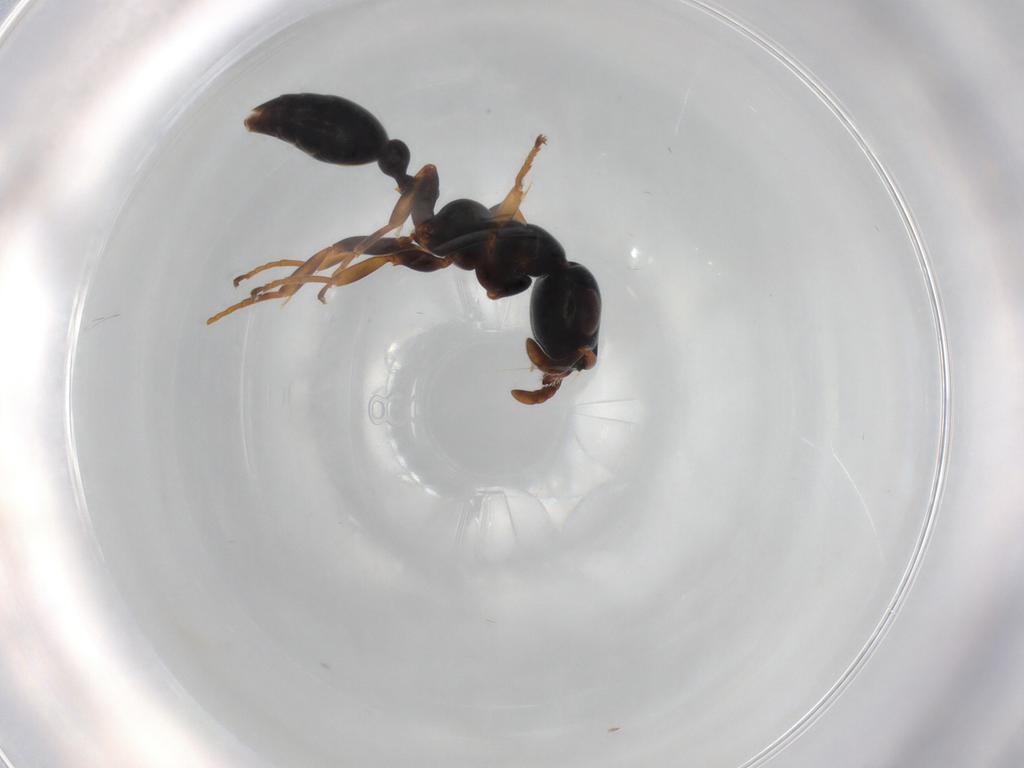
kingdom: Animalia
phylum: Arthropoda
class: Insecta
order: Hymenoptera
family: Formicidae
